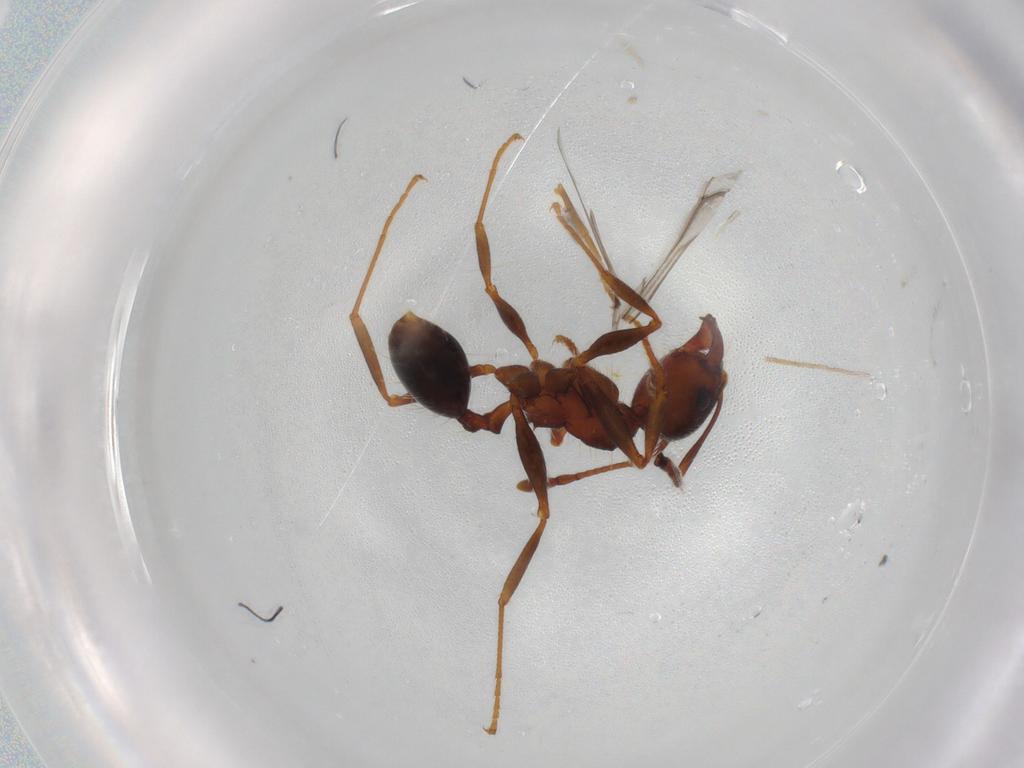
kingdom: Animalia
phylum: Arthropoda
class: Insecta
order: Hymenoptera
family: Ichneumonidae
